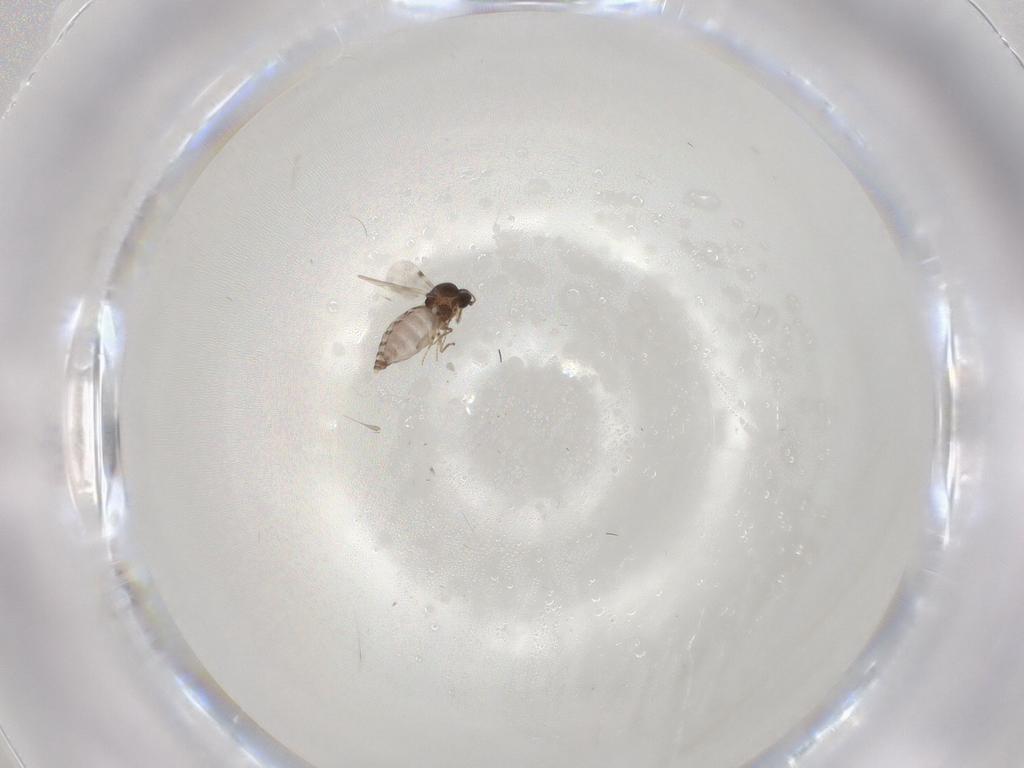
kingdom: Animalia
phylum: Arthropoda
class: Insecta
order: Diptera
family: Dolichopodidae
